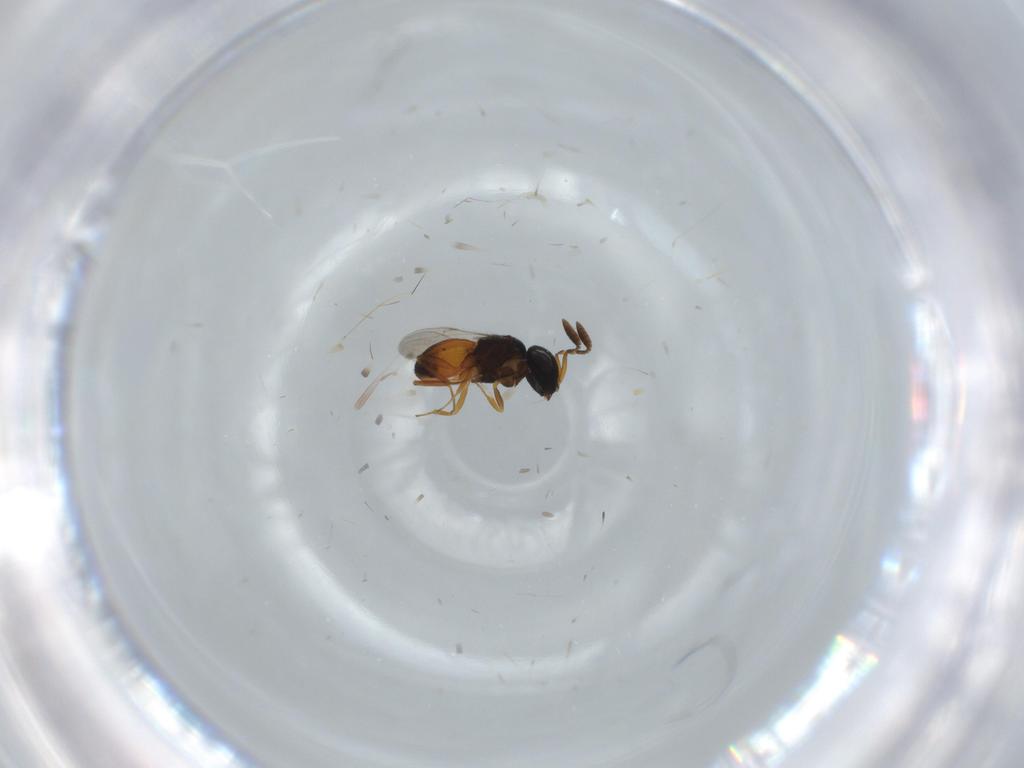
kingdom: Animalia
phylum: Arthropoda
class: Insecta
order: Hymenoptera
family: Scelionidae
